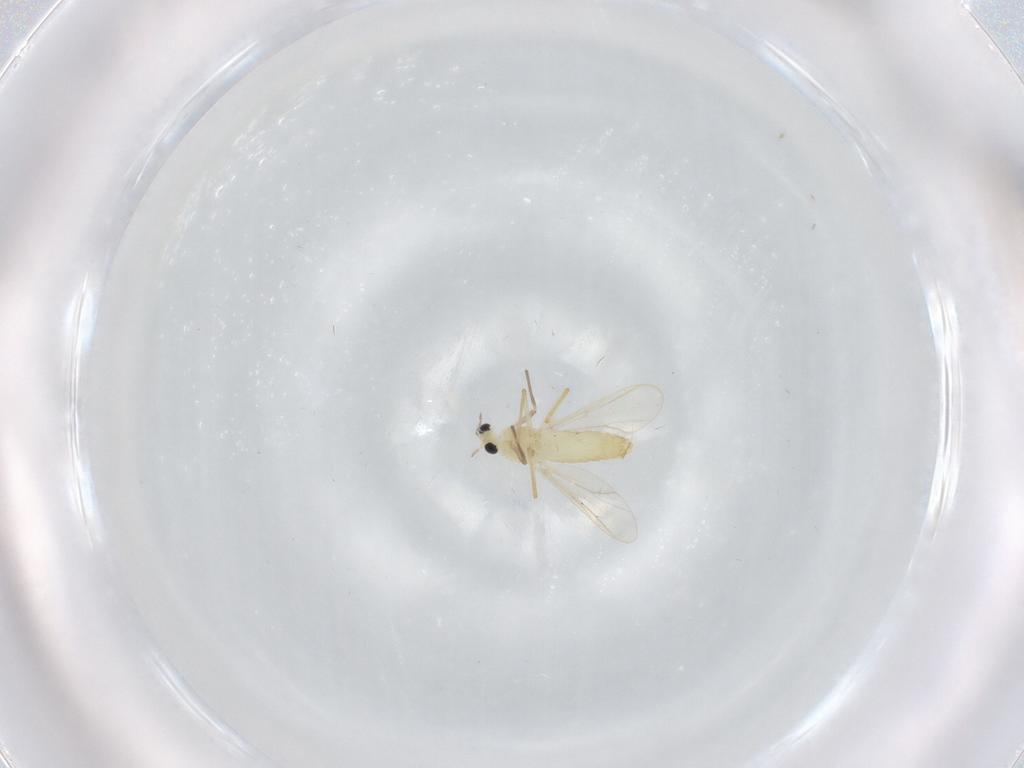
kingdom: Animalia
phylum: Arthropoda
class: Insecta
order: Diptera
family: Chironomidae
